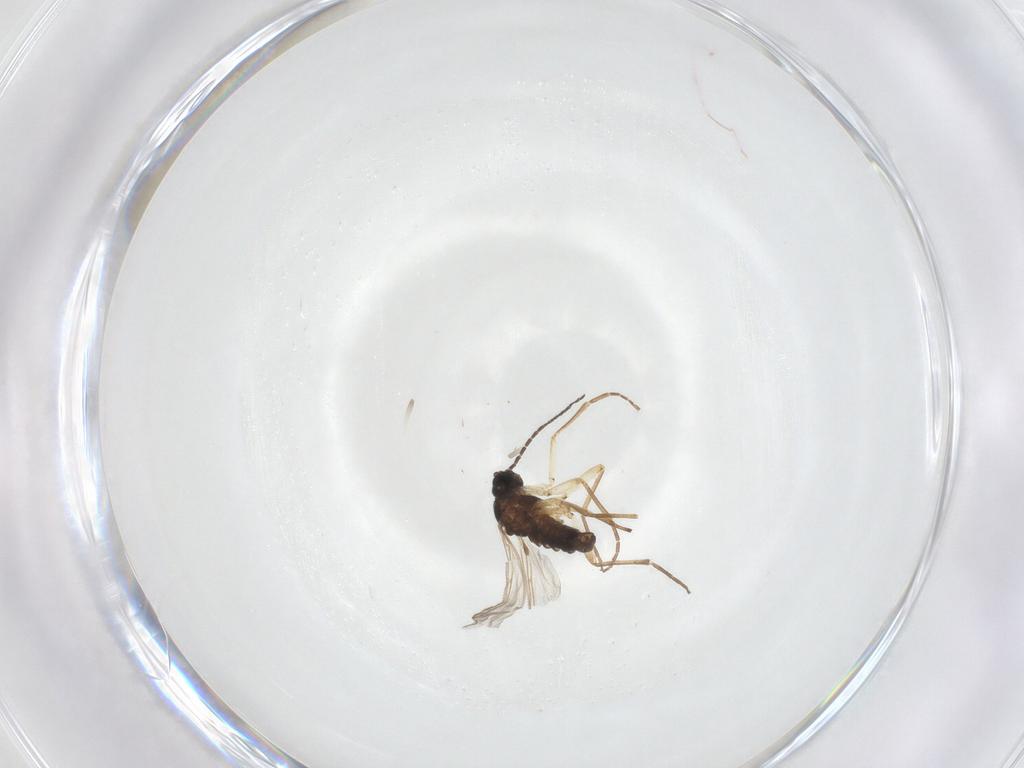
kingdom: Animalia
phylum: Arthropoda
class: Insecta
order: Diptera
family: Sciaridae
